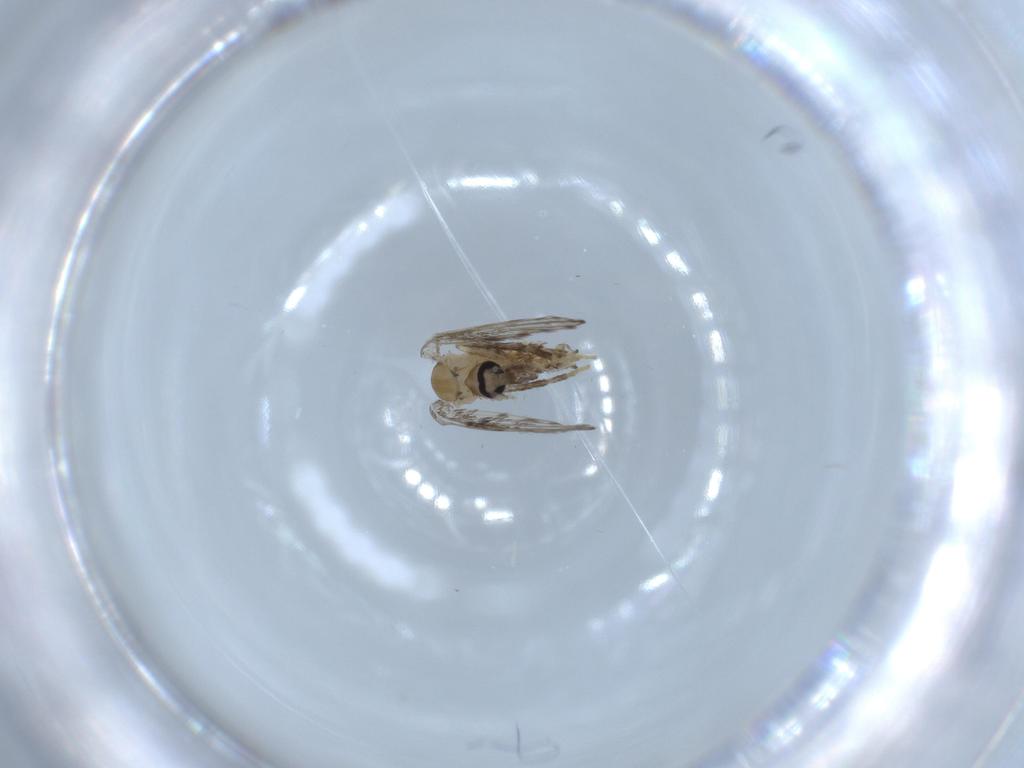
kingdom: Animalia
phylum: Arthropoda
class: Insecta
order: Diptera
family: Psychodidae
